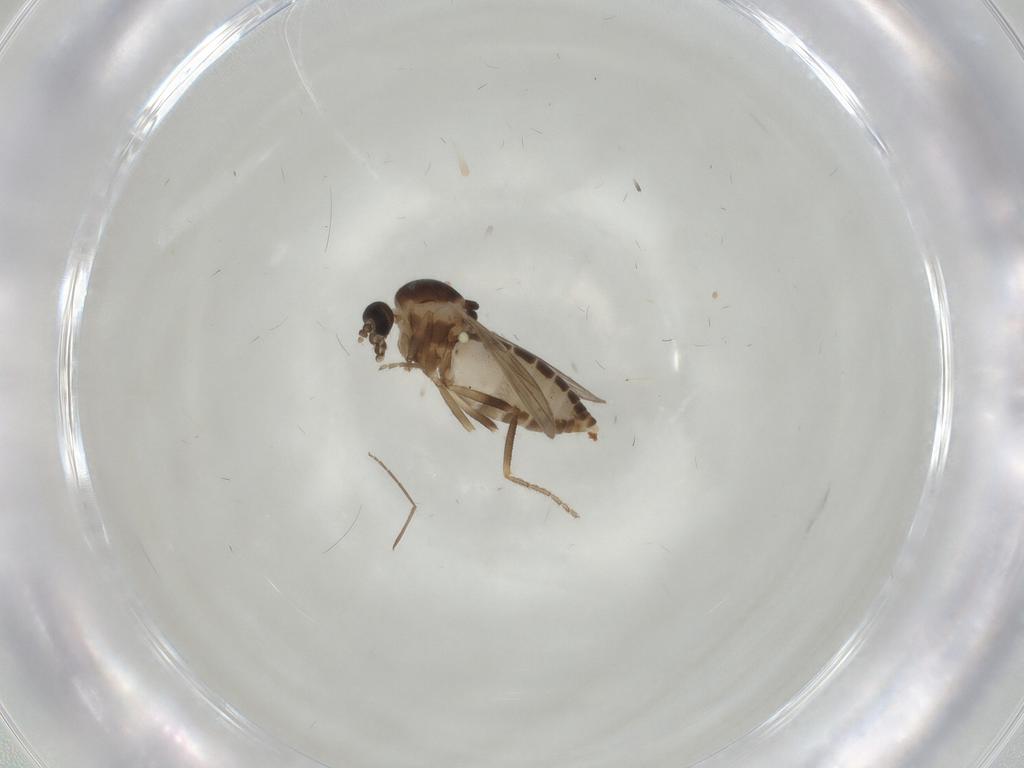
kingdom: Animalia
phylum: Arthropoda
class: Insecta
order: Diptera
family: Ceratopogonidae
